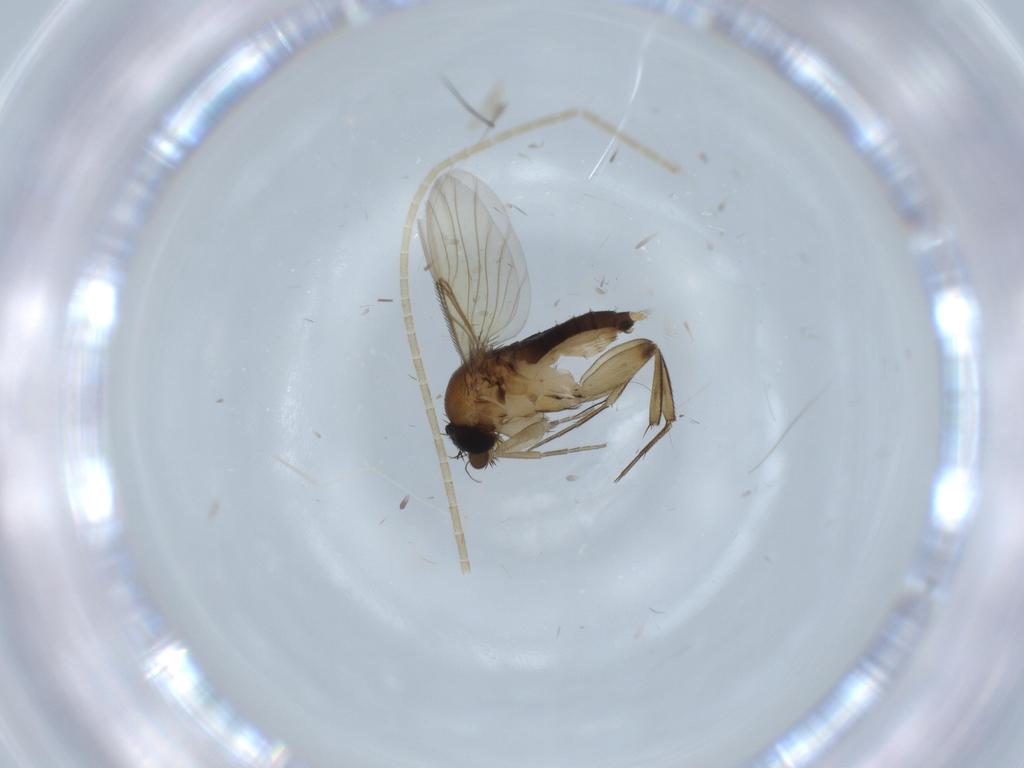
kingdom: Animalia
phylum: Arthropoda
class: Insecta
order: Diptera
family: Phoridae
